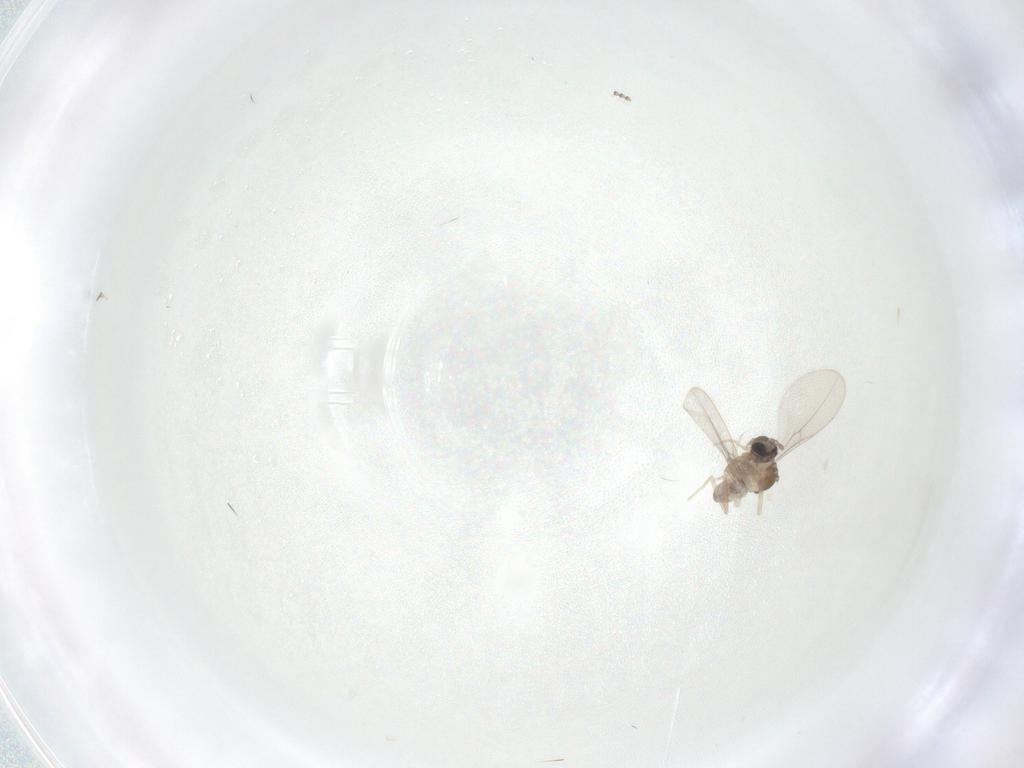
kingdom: Animalia
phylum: Arthropoda
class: Insecta
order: Diptera
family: Cecidomyiidae
